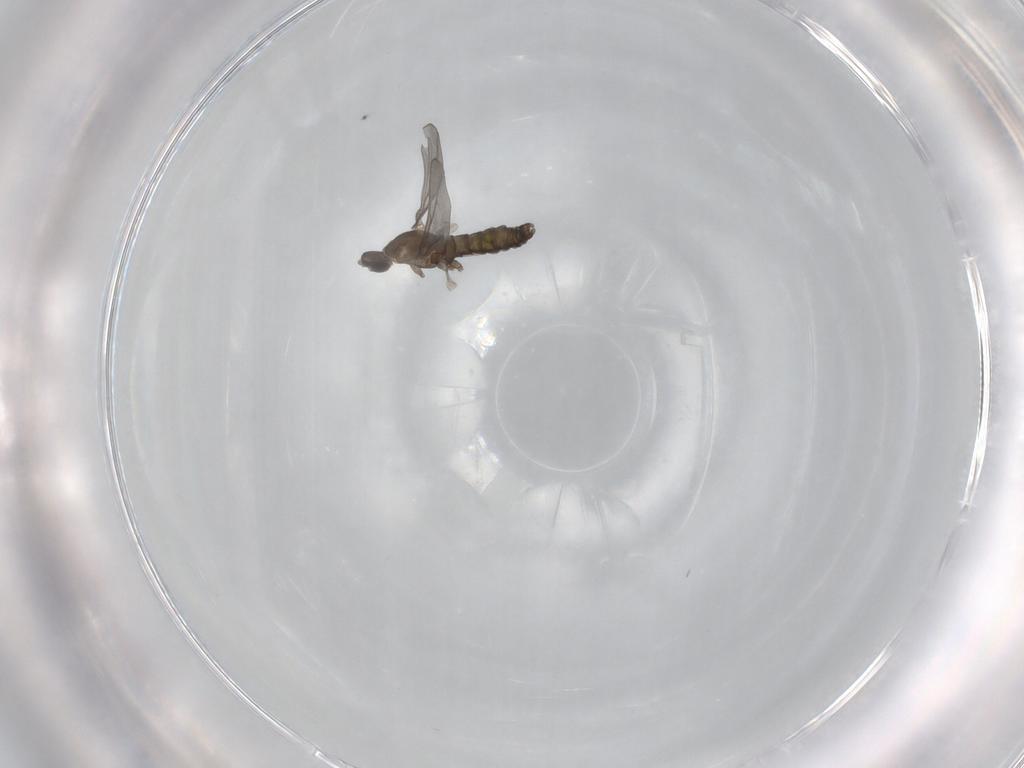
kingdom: Animalia
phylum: Arthropoda
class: Insecta
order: Diptera
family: Cecidomyiidae
